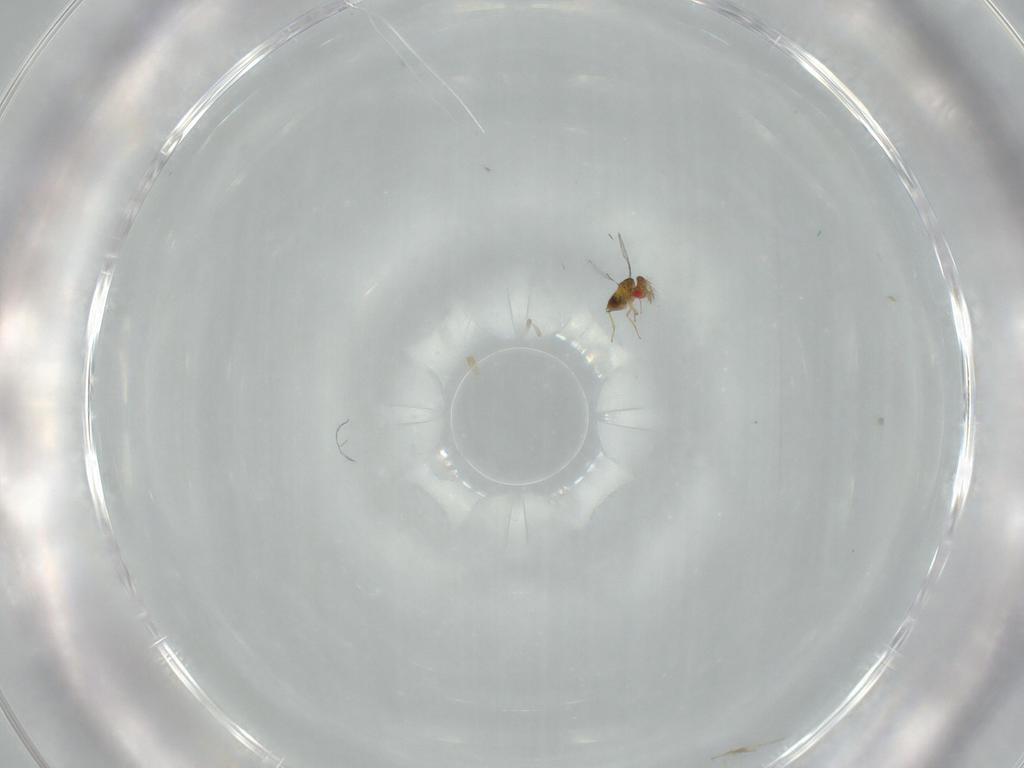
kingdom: Animalia
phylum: Arthropoda
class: Insecta
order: Hymenoptera
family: Trichogrammatidae
